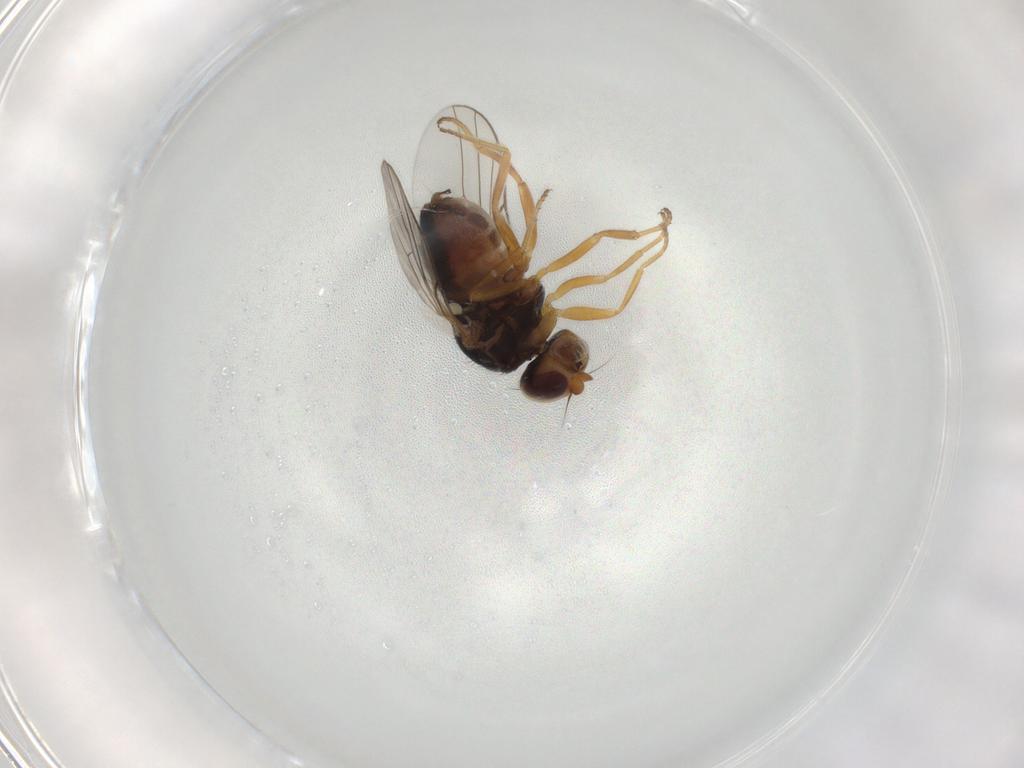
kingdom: Animalia
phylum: Arthropoda
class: Insecta
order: Diptera
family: Chloropidae
